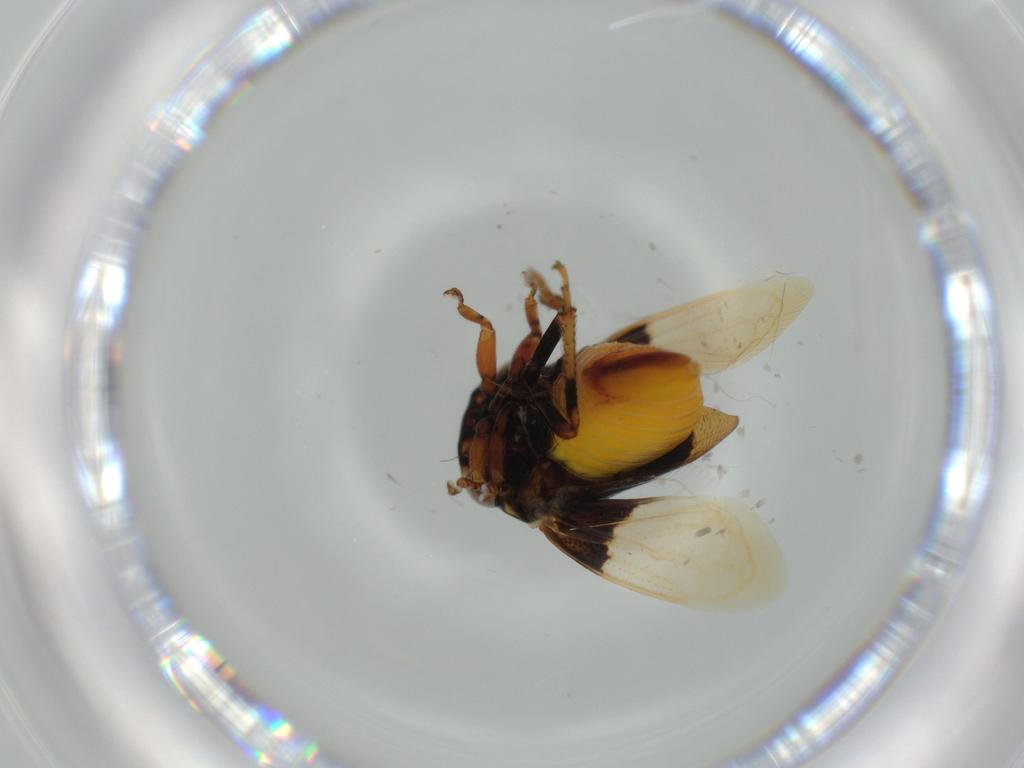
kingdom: Animalia
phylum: Arthropoda
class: Insecta
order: Hemiptera
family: Membracidae
